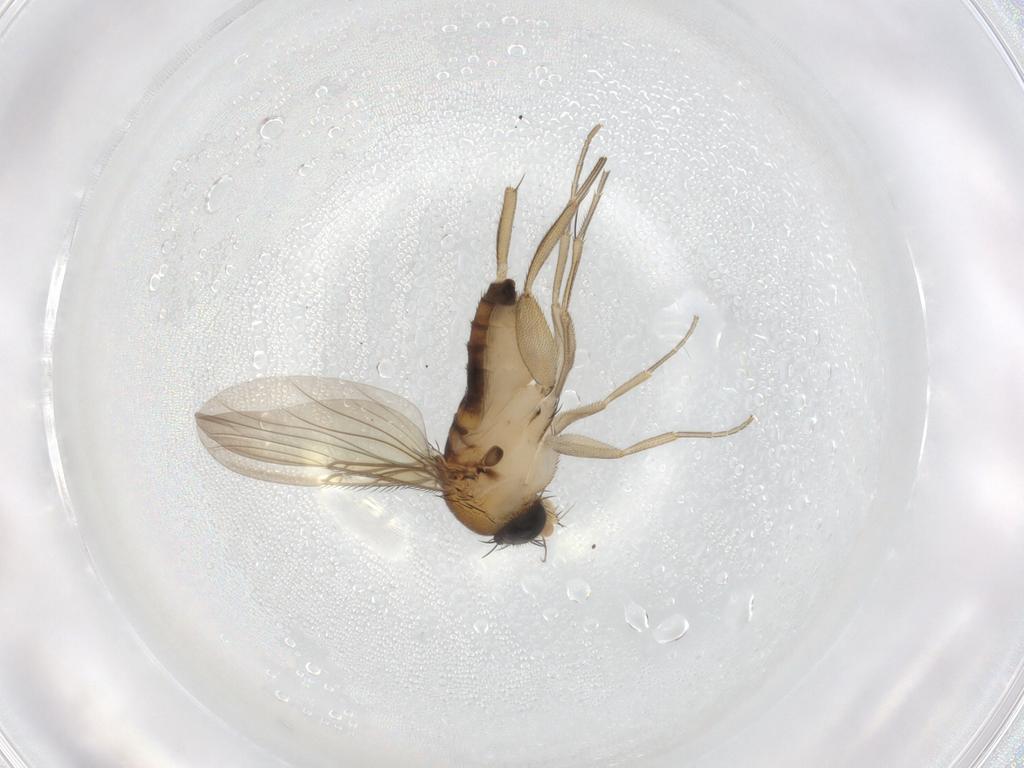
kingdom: Animalia
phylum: Arthropoda
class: Insecta
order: Diptera
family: Phoridae
